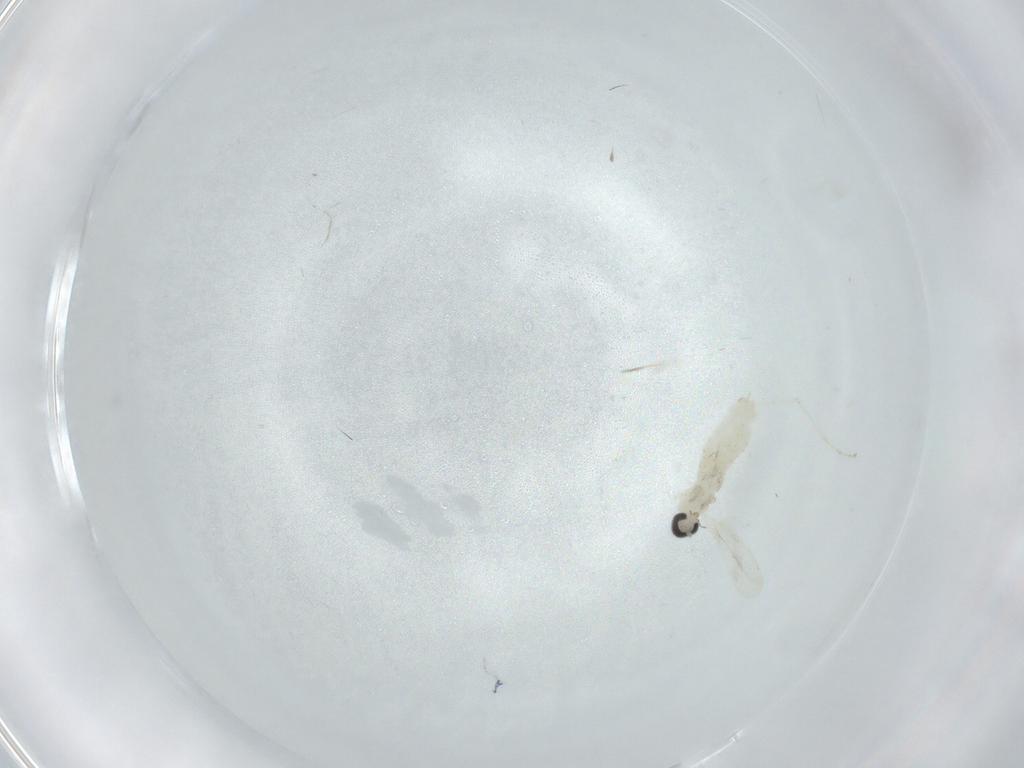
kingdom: Animalia
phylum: Arthropoda
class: Insecta
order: Diptera
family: Cecidomyiidae
